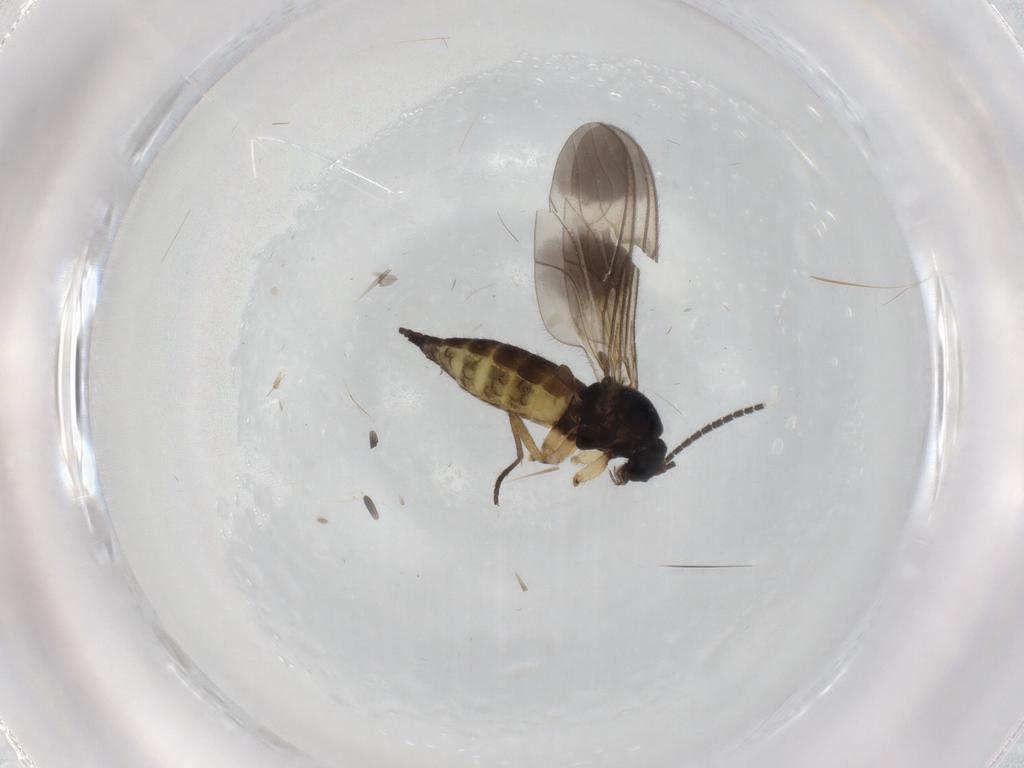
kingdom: Animalia
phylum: Arthropoda
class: Insecta
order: Diptera
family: Sciaridae
